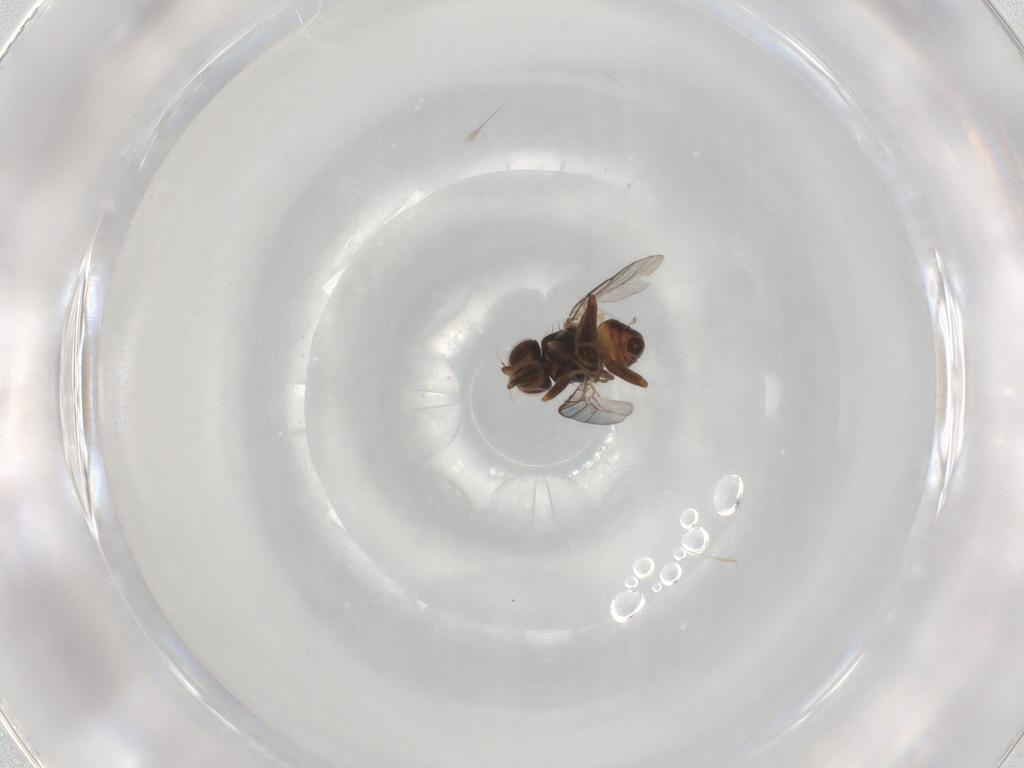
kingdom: Animalia
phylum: Arthropoda
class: Insecta
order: Diptera
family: Chloropidae
